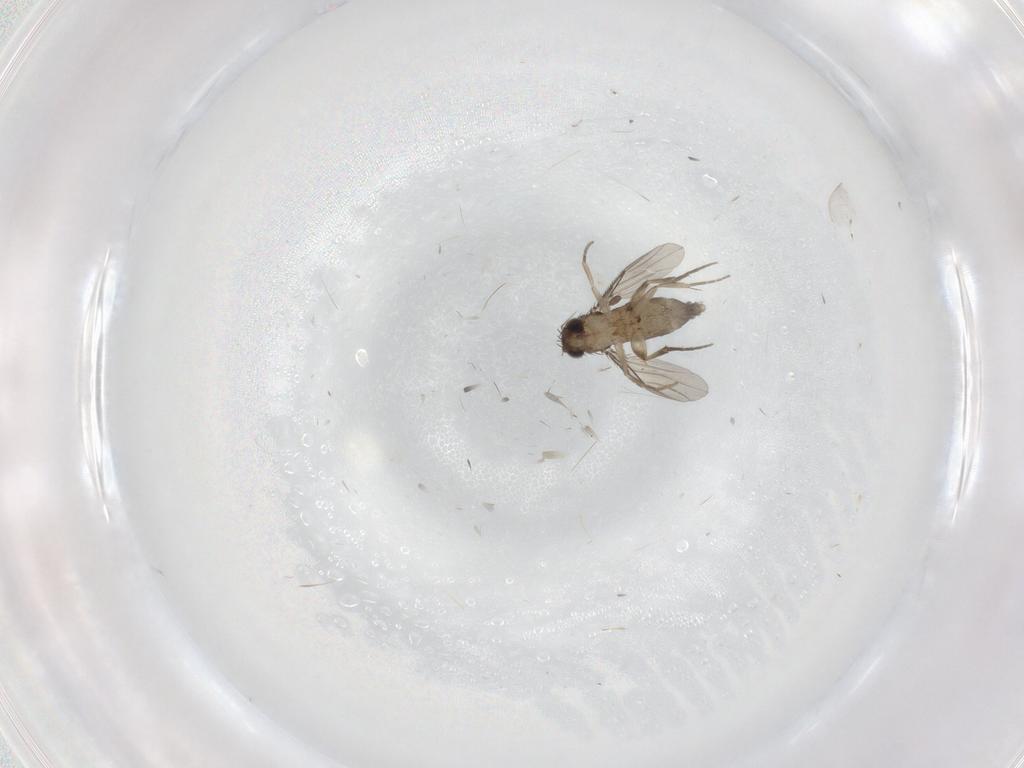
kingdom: Animalia
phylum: Arthropoda
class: Insecta
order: Diptera
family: Phoridae
